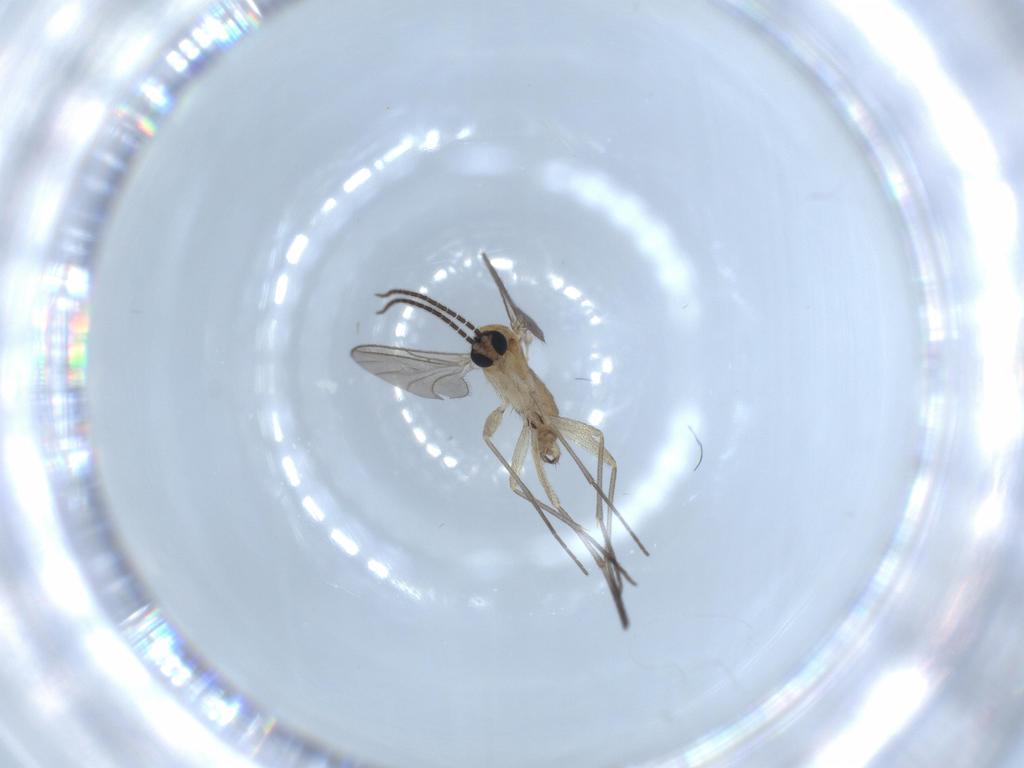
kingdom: Animalia
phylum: Arthropoda
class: Insecta
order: Diptera
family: Sciaridae
